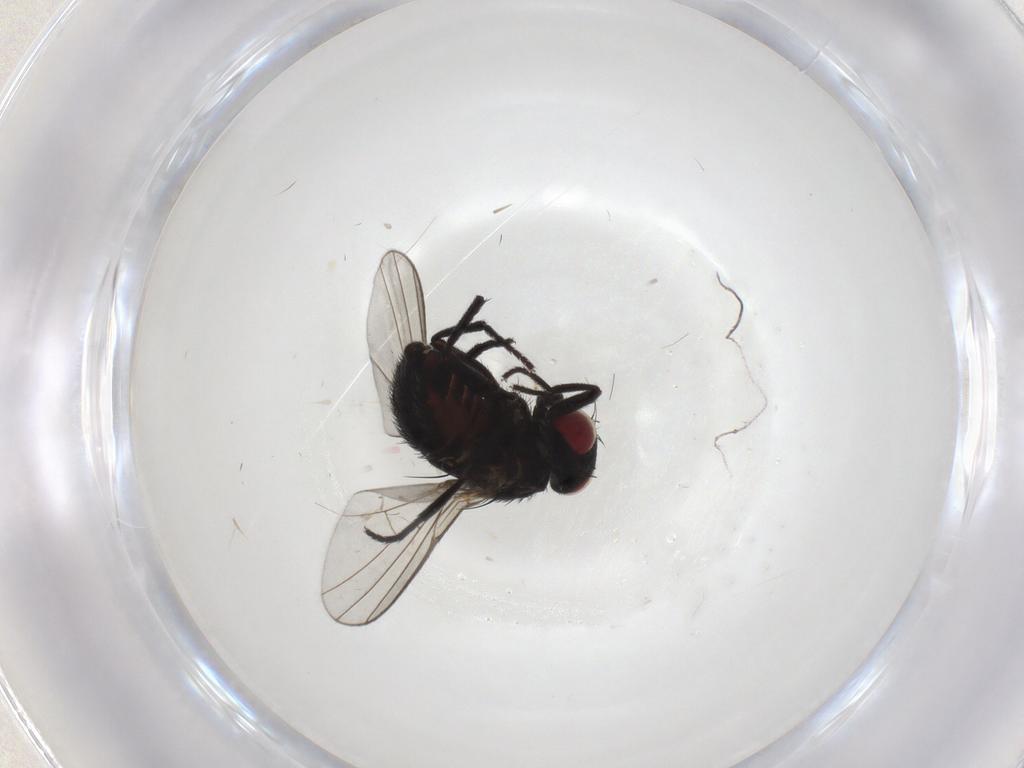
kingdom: Animalia
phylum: Arthropoda
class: Insecta
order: Diptera
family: Agromyzidae
